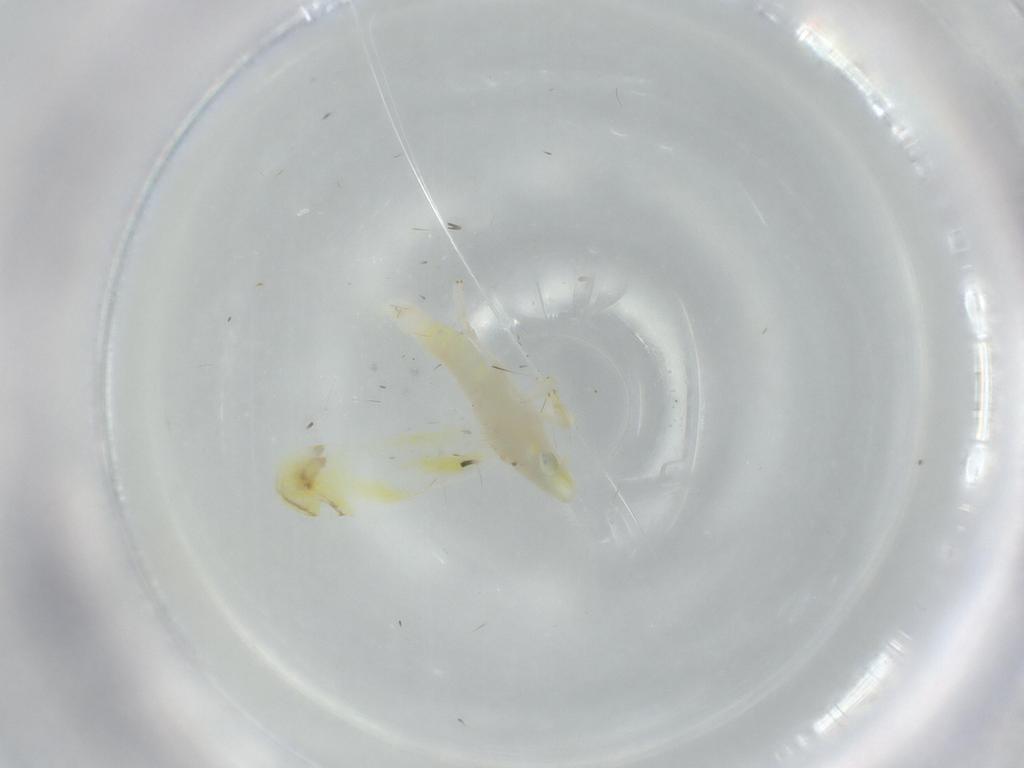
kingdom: Animalia
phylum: Arthropoda
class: Insecta
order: Hemiptera
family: Cicadellidae
